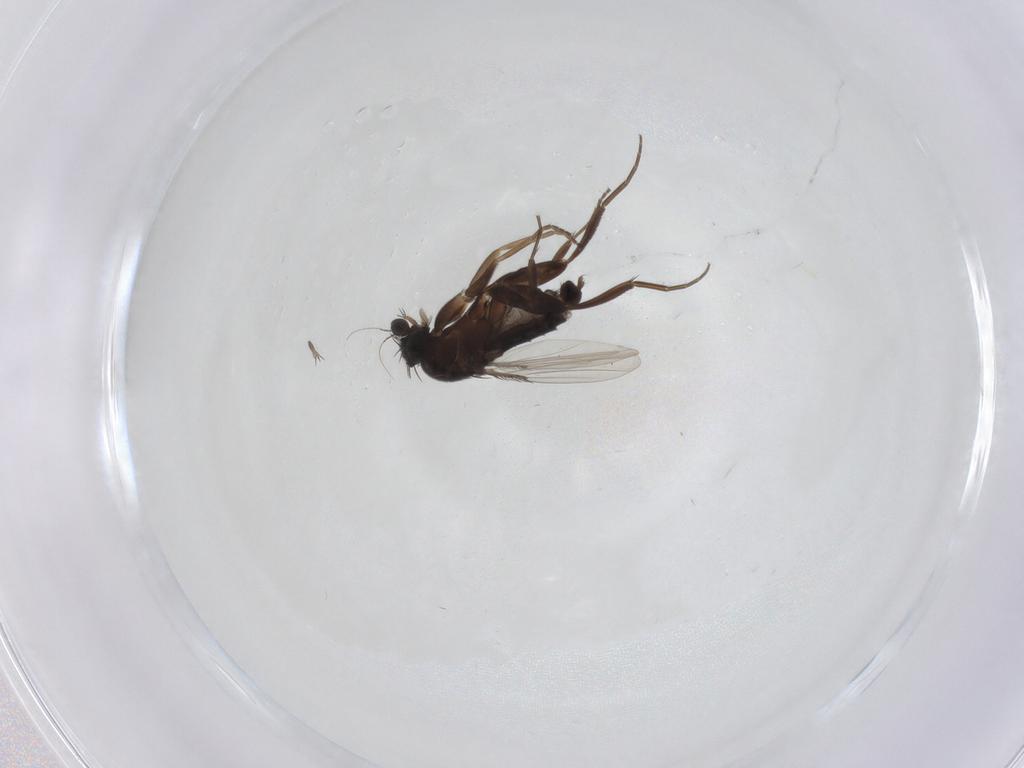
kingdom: Animalia
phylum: Arthropoda
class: Insecta
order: Diptera
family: Phoridae
